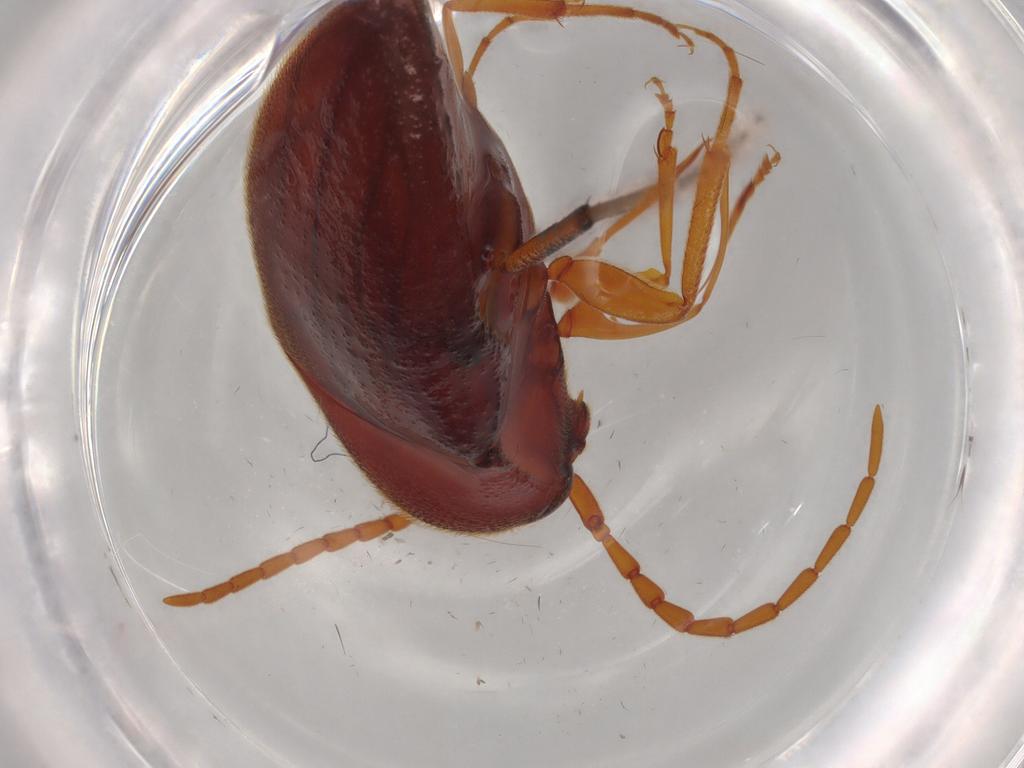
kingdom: Animalia
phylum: Arthropoda
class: Insecta
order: Coleoptera
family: Eucnemidae
